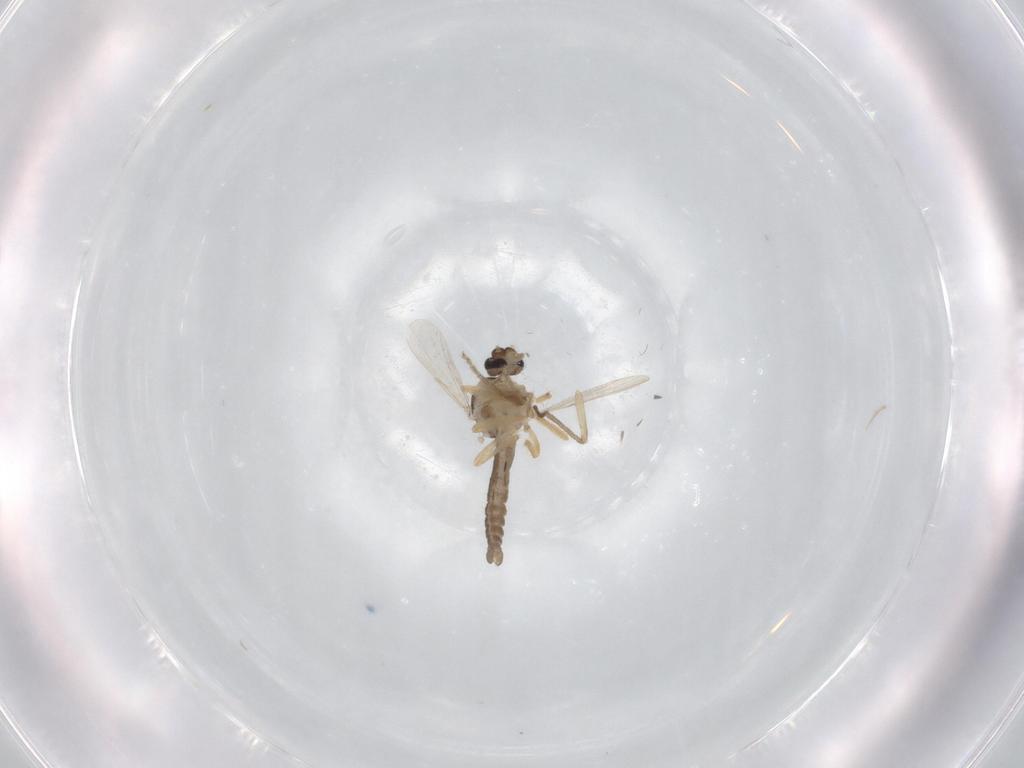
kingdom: Animalia
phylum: Arthropoda
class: Insecta
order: Diptera
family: Ceratopogonidae
